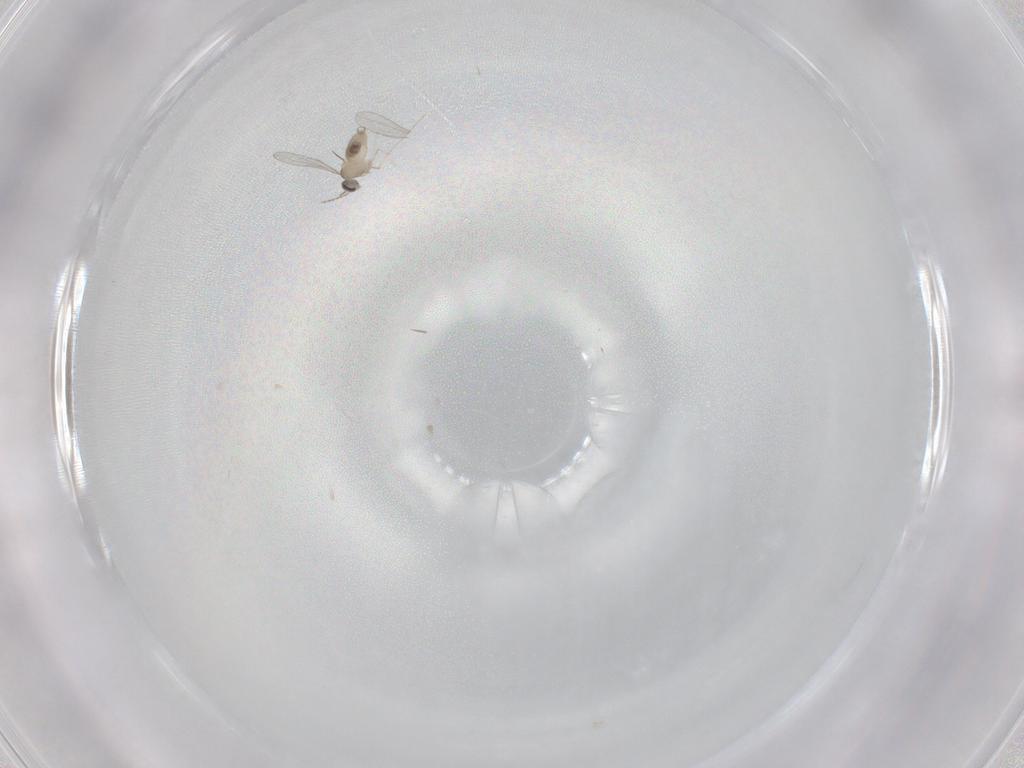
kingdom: Animalia
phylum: Arthropoda
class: Insecta
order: Diptera
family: Cecidomyiidae
